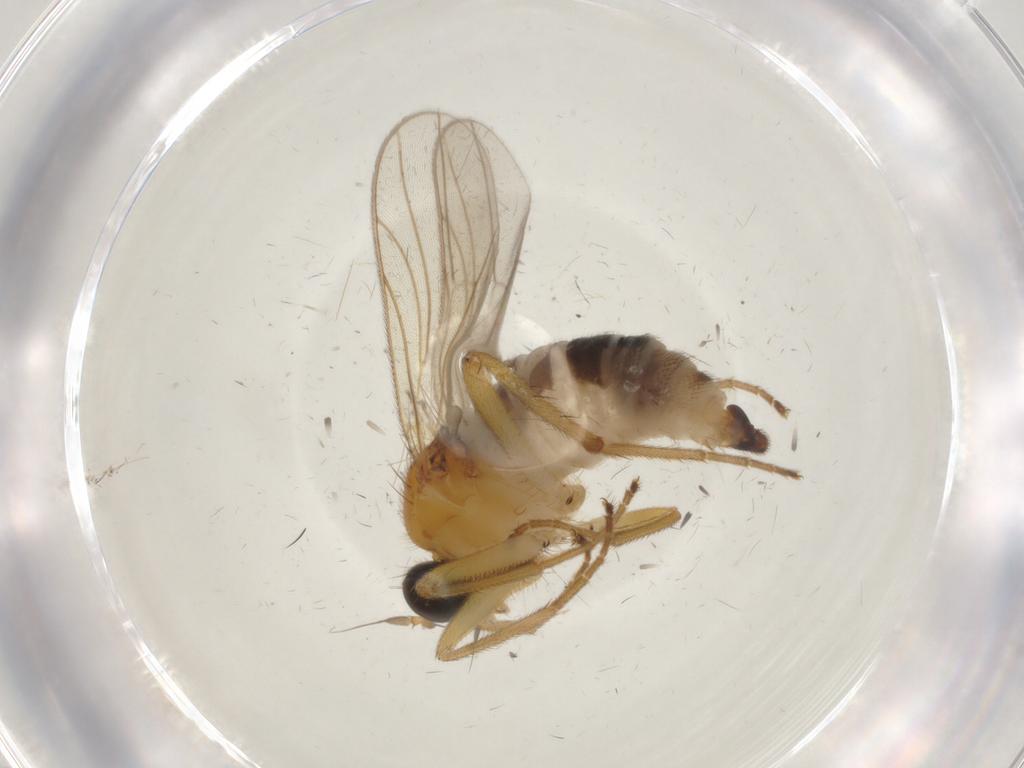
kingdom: Animalia
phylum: Arthropoda
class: Insecta
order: Diptera
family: Hybotidae
